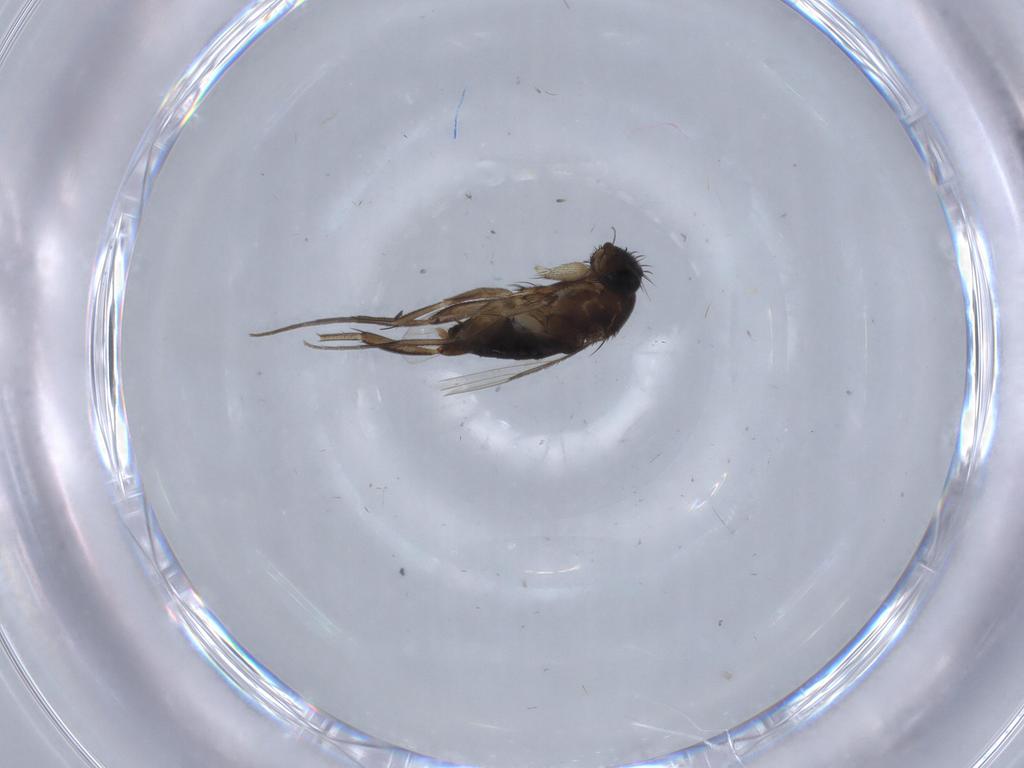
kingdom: Animalia
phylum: Arthropoda
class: Insecta
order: Diptera
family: Phoridae
